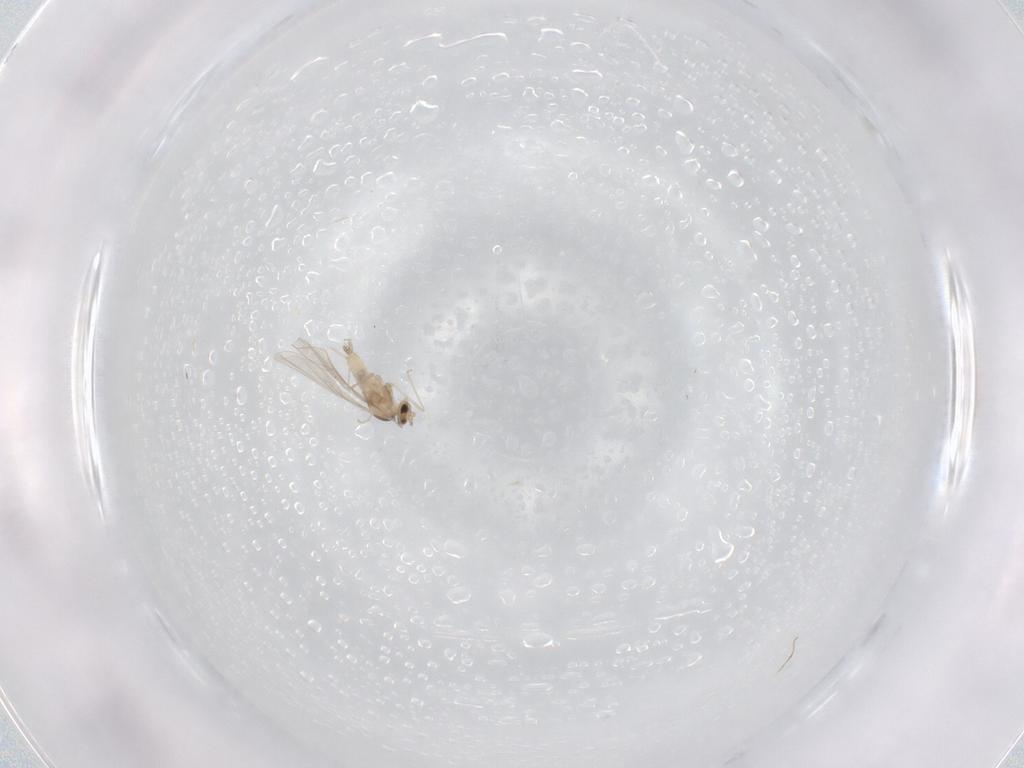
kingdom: Animalia
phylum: Arthropoda
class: Insecta
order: Diptera
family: Cecidomyiidae
